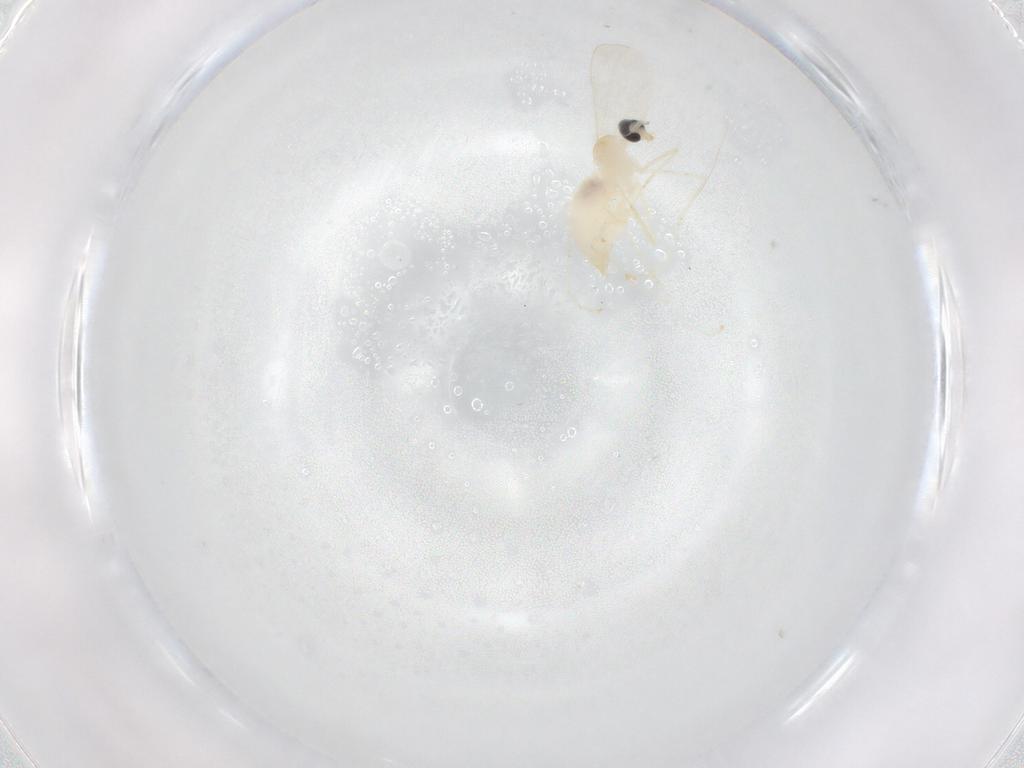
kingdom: Animalia
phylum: Arthropoda
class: Insecta
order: Diptera
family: Cecidomyiidae
